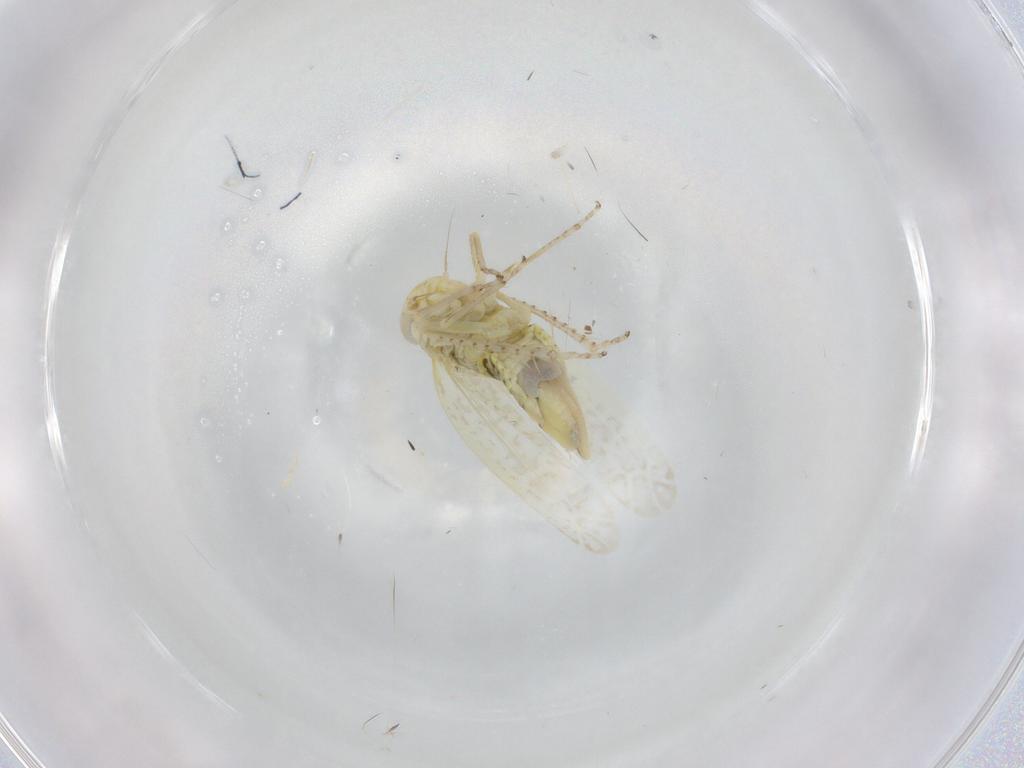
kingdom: Animalia
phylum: Arthropoda
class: Insecta
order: Hemiptera
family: Cicadellidae
